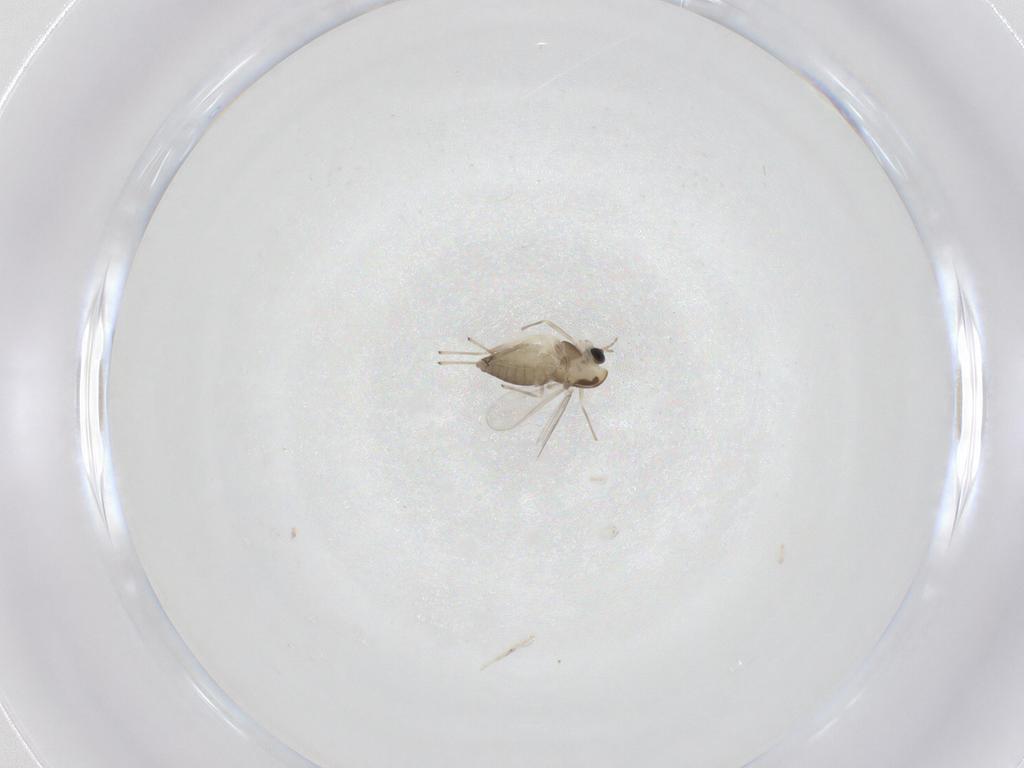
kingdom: Animalia
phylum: Arthropoda
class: Insecta
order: Diptera
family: Chironomidae
